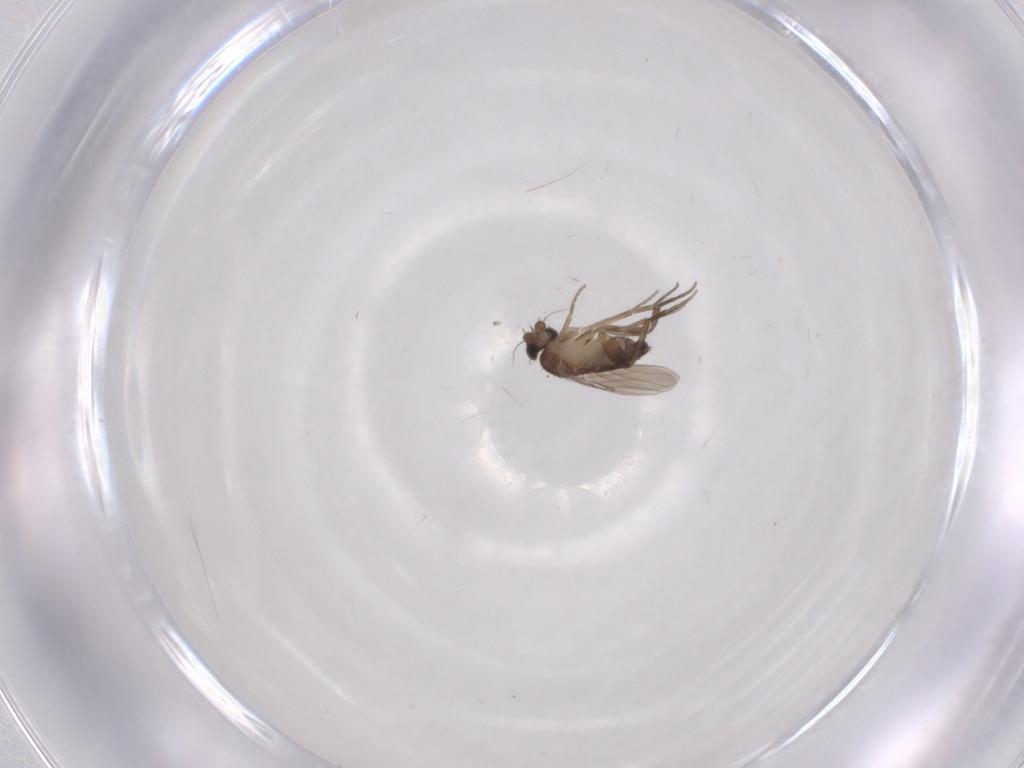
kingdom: Animalia
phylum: Arthropoda
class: Insecta
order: Diptera
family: Phoridae
